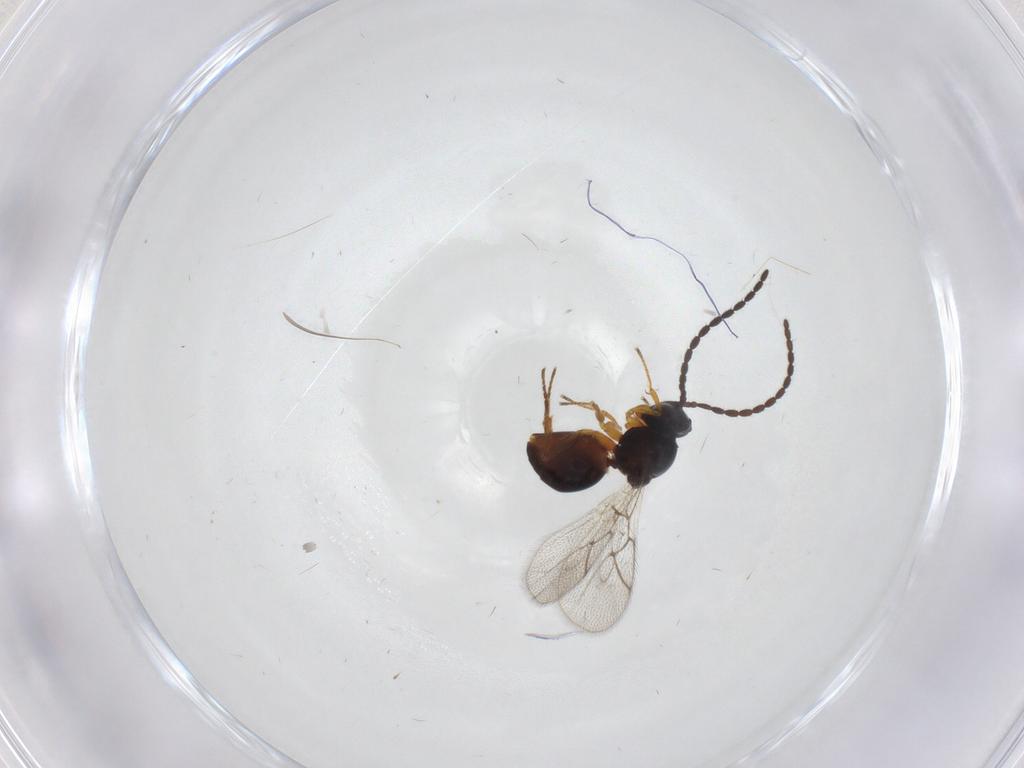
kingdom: Animalia
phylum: Arthropoda
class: Insecta
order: Hymenoptera
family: Figitidae
